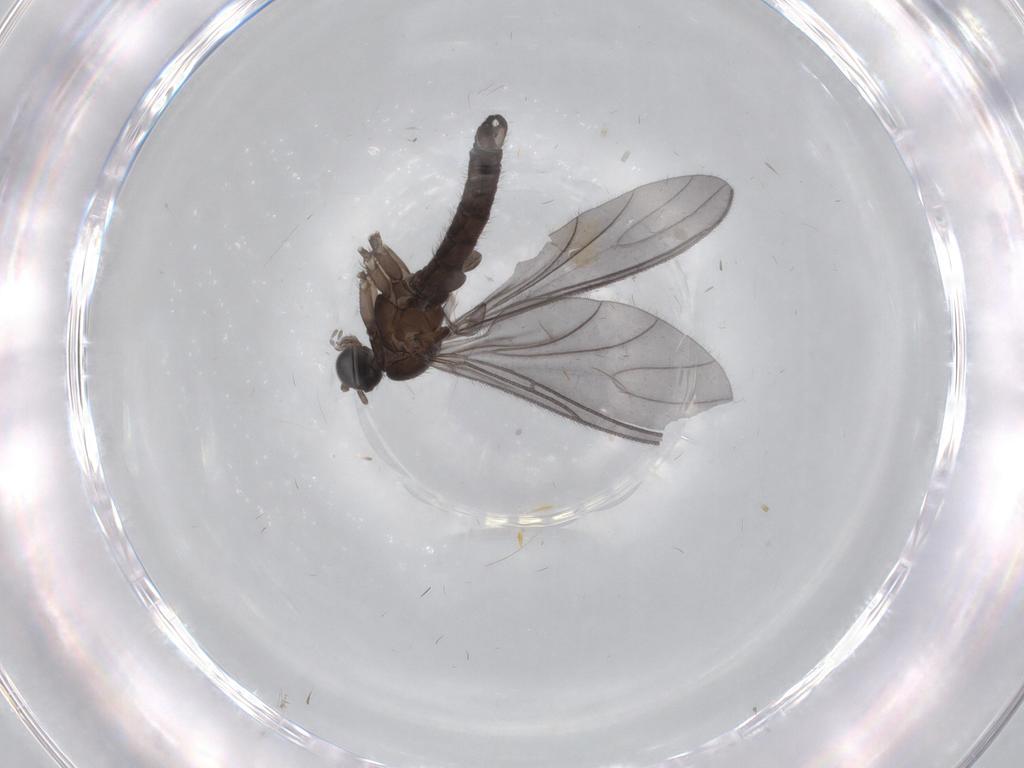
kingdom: Animalia
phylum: Arthropoda
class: Insecta
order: Diptera
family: Sciaridae
